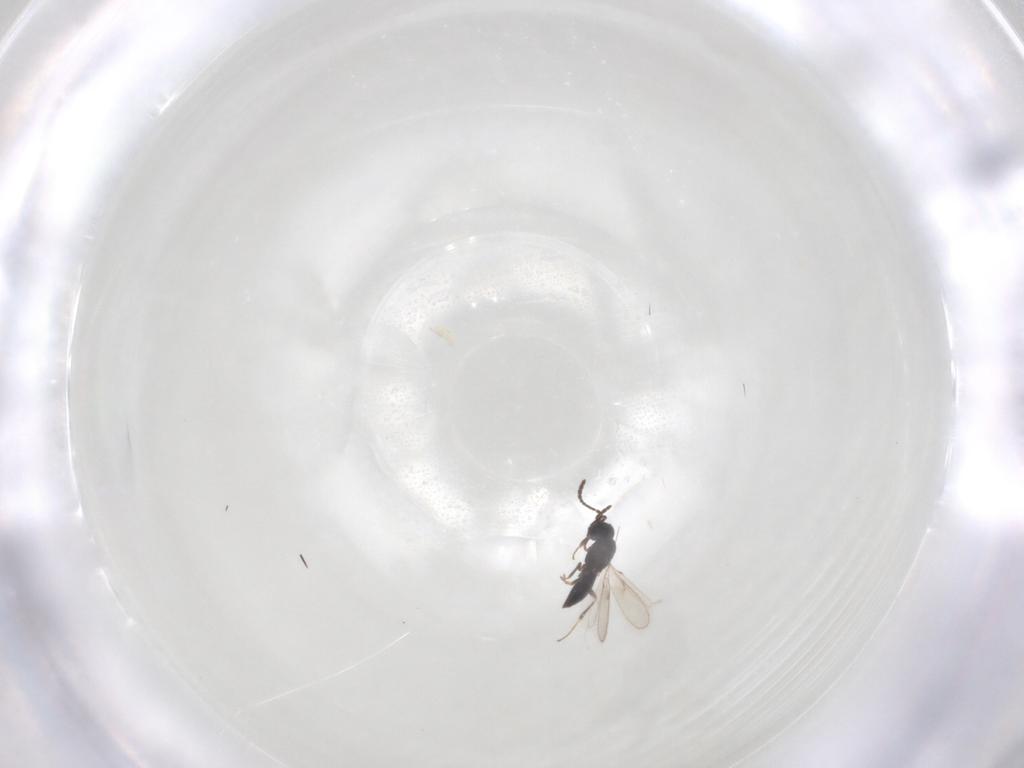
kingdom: Animalia
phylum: Arthropoda
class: Insecta
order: Hymenoptera
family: Scelionidae
